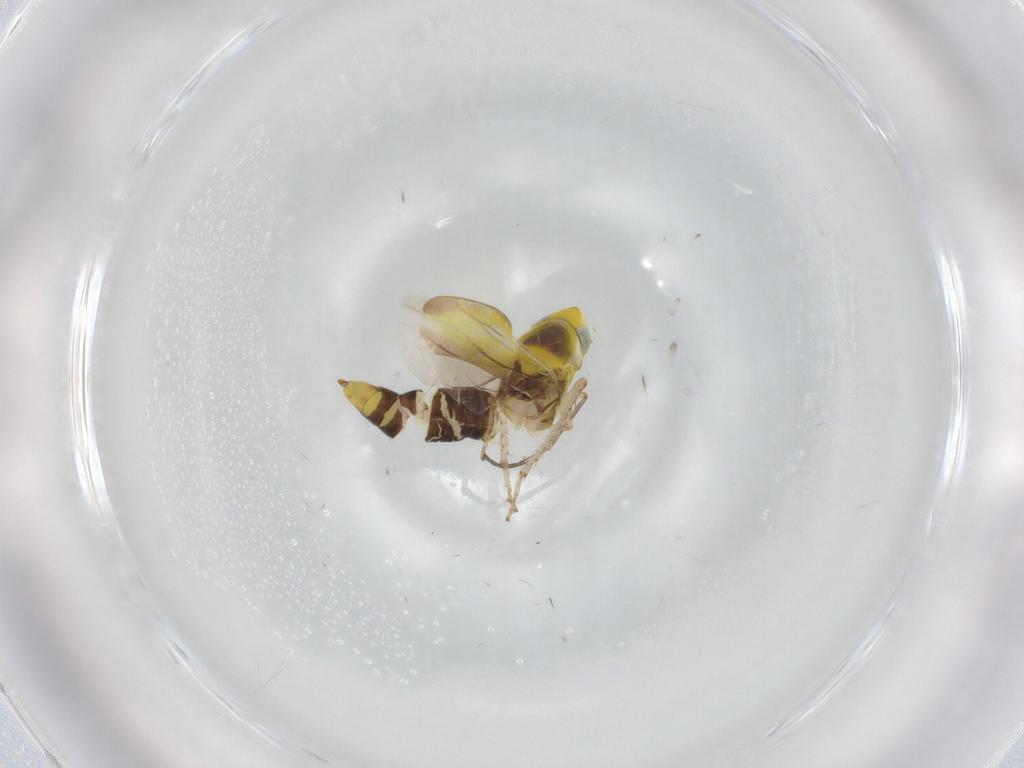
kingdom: Animalia
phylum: Arthropoda
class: Insecta
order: Hemiptera
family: Cicadellidae
